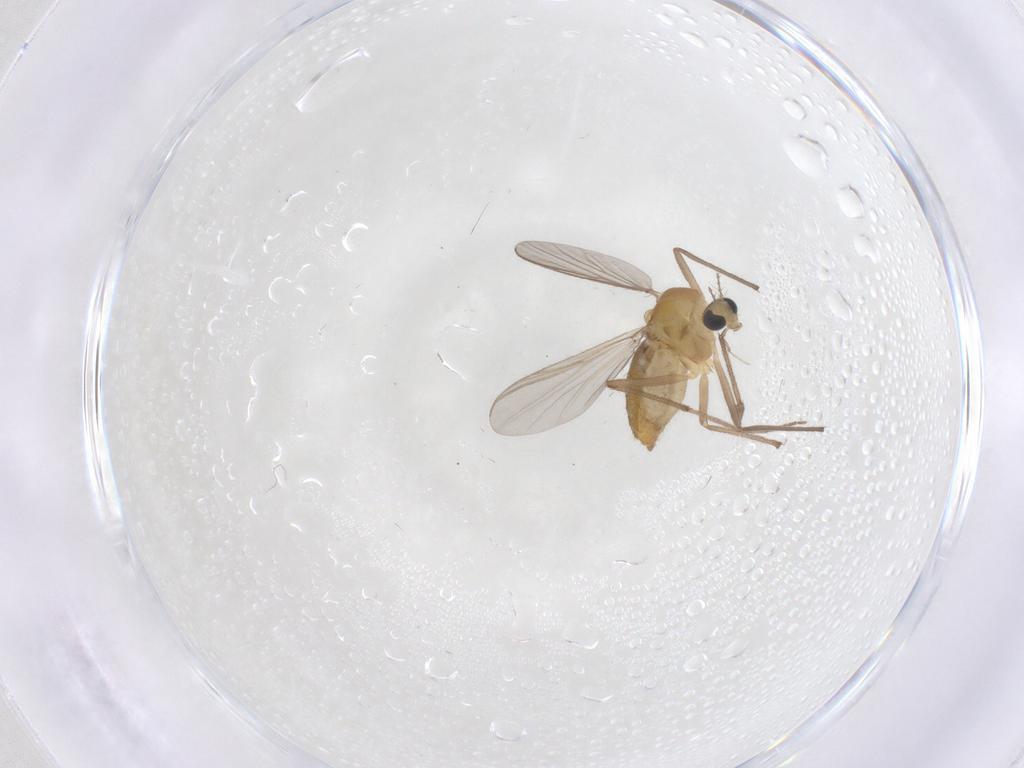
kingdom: Animalia
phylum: Arthropoda
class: Insecta
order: Diptera
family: Chironomidae
